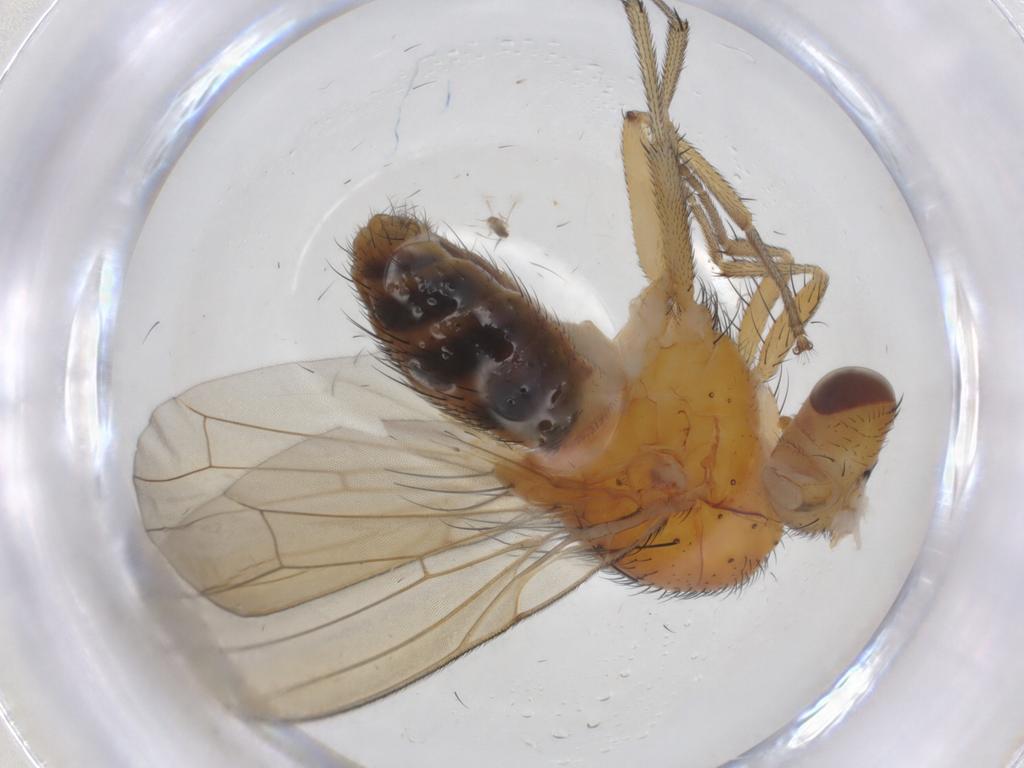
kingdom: Animalia
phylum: Arthropoda
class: Insecta
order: Diptera
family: Chironomidae
